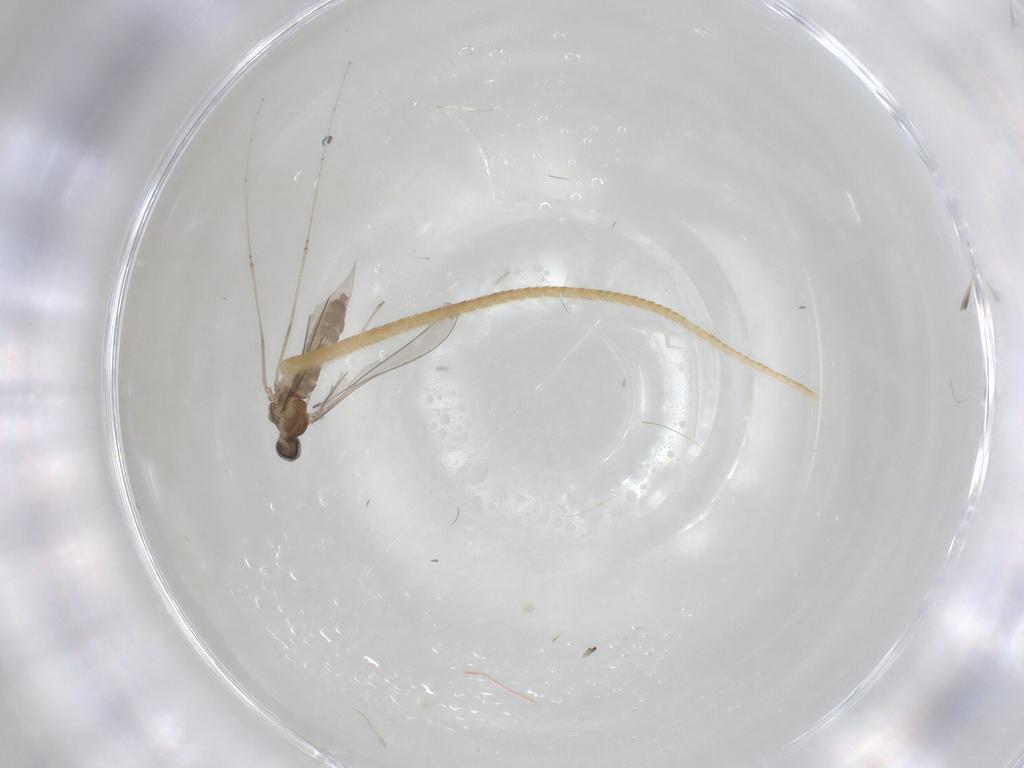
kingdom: Animalia
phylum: Arthropoda
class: Insecta
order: Diptera
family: Cecidomyiidae
